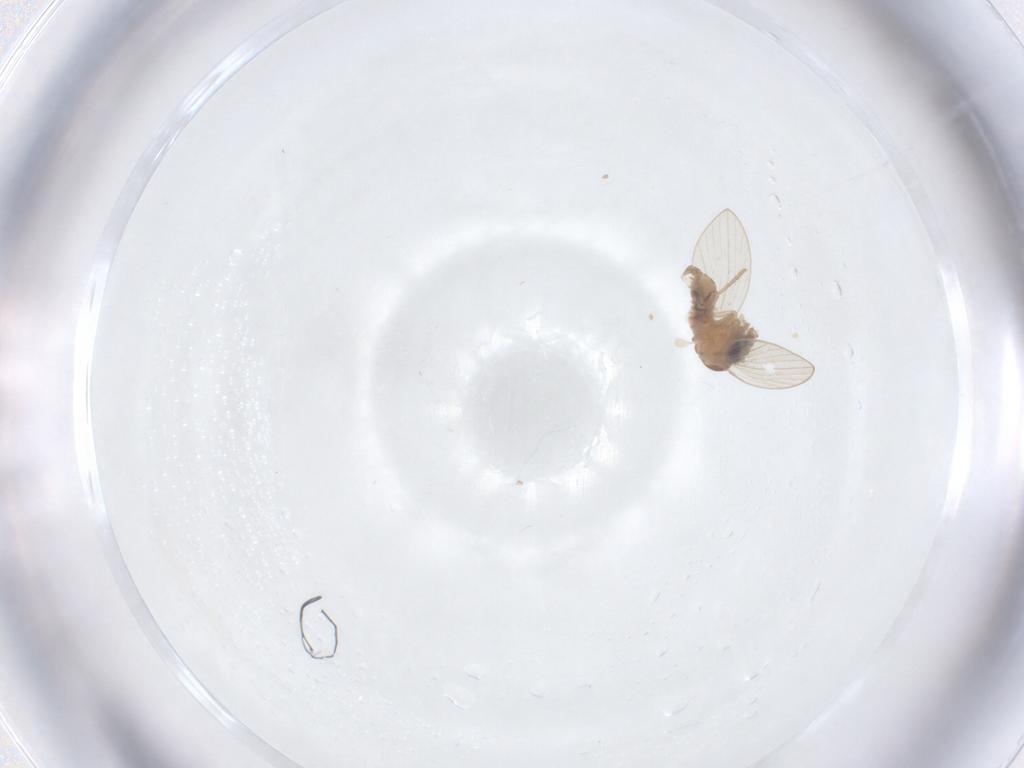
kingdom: Animalia
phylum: Arthropoda
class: Insecta
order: Diptera
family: Psychodidae
